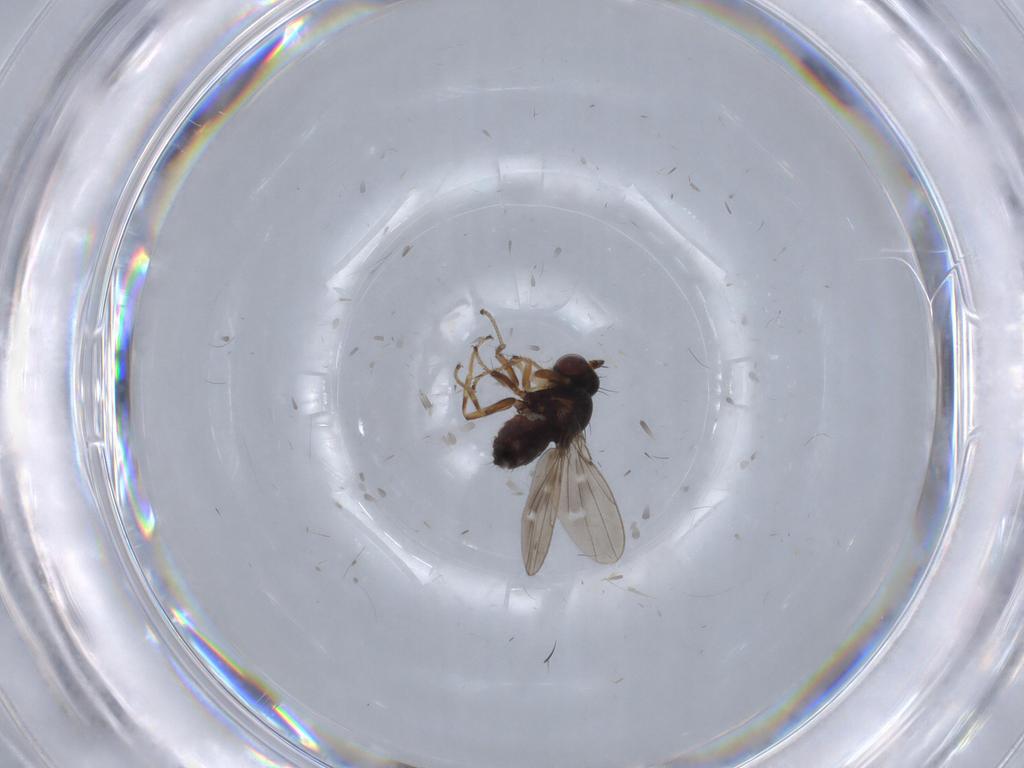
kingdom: Animalia
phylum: Arthropoda
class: Insecta
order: Diptera
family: Ephydridae
